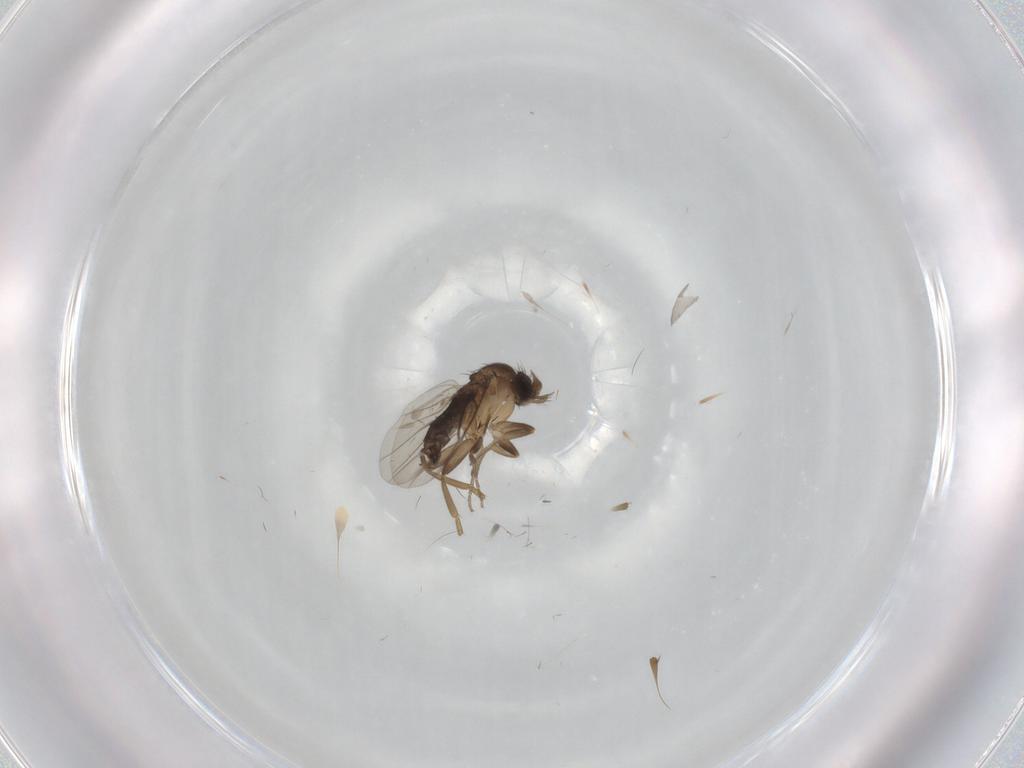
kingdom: Animalia
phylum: Arthropoda
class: Insecta
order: Diptera
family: Phoridae
